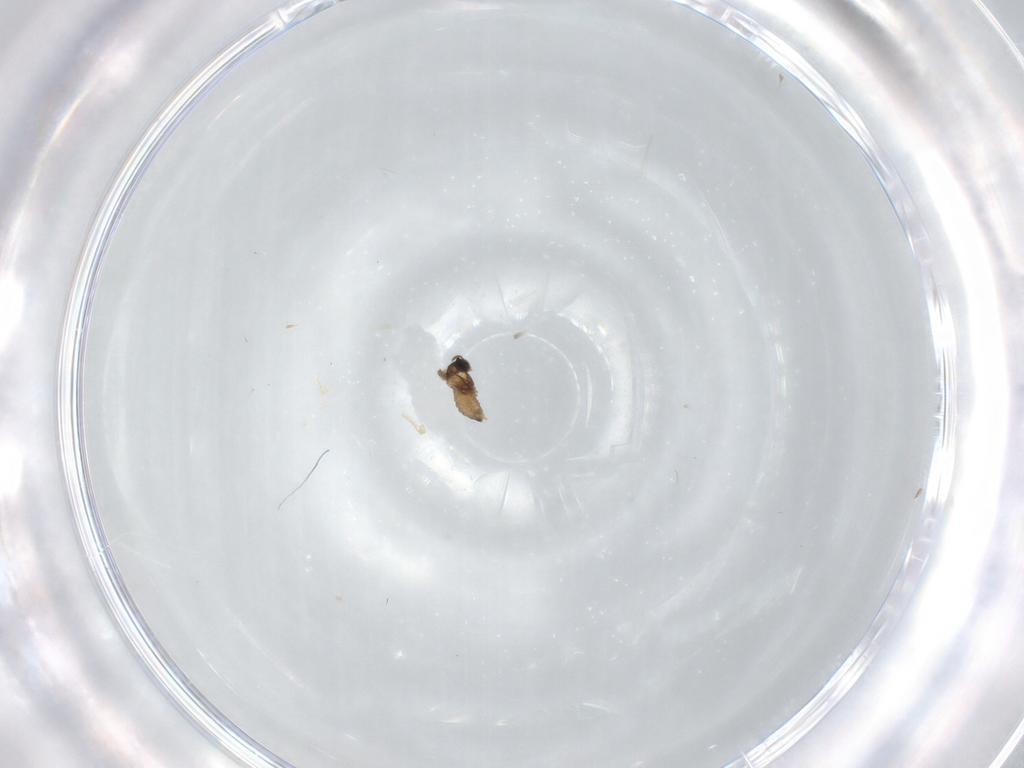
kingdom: Animalia
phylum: Arthropoda
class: Insecta
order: Diptera
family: Cecidomyiidae
